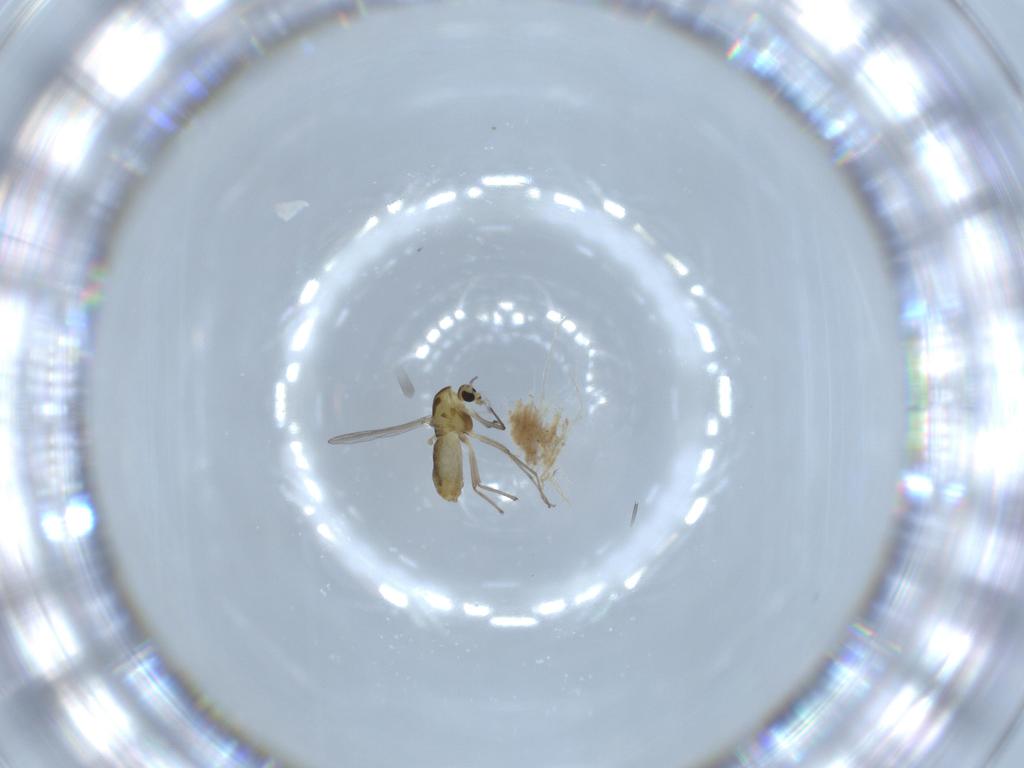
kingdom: Animalia
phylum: Arthropoda
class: Insecta
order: Diptera
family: Chironomidae
